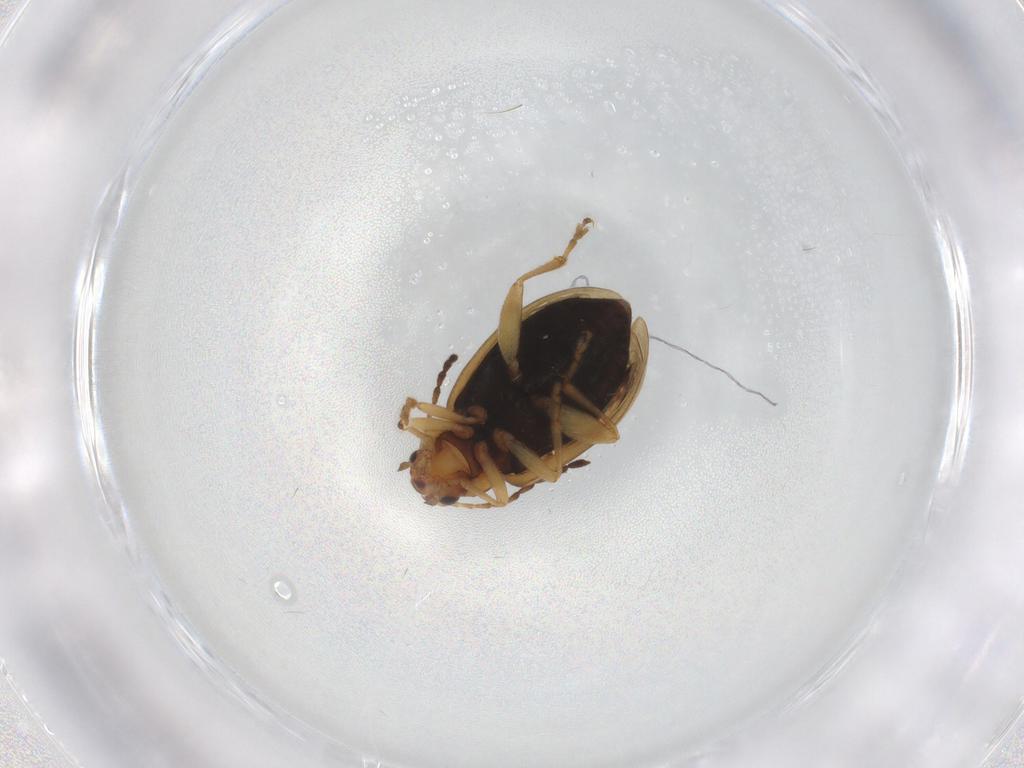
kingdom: Animalia
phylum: Arthropoda
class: Insecta
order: Coleoptera
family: Chrysomelidae
